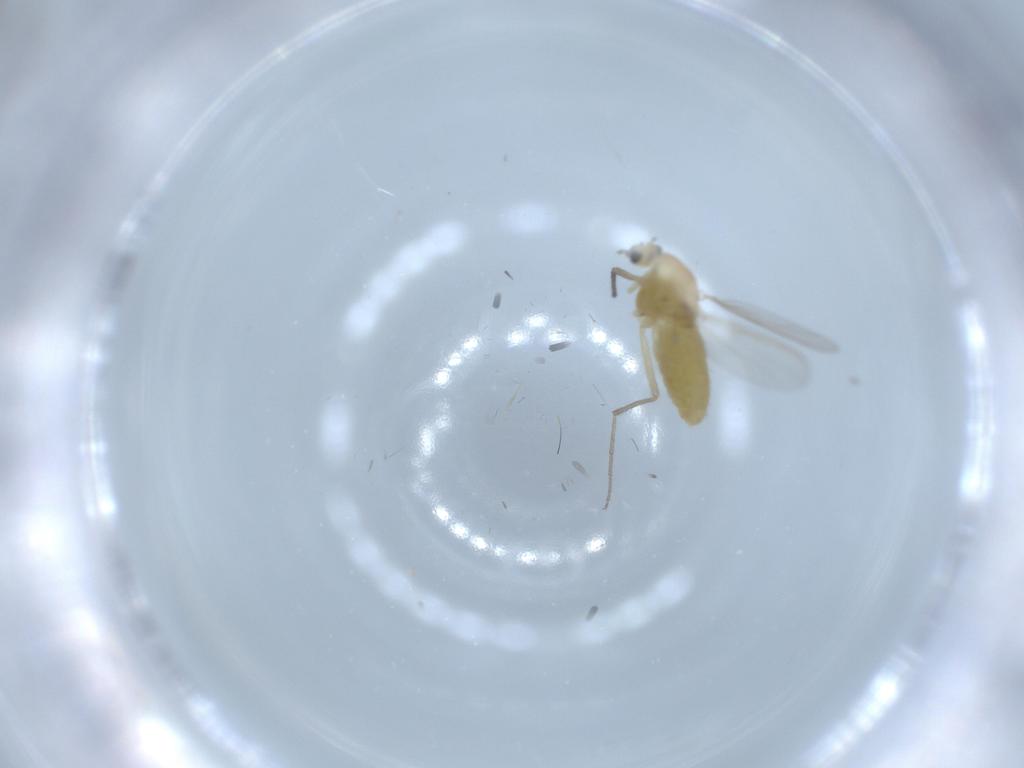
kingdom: Animalia
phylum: Arthropoda
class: Insecta
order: Diptera
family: Chironomidae
